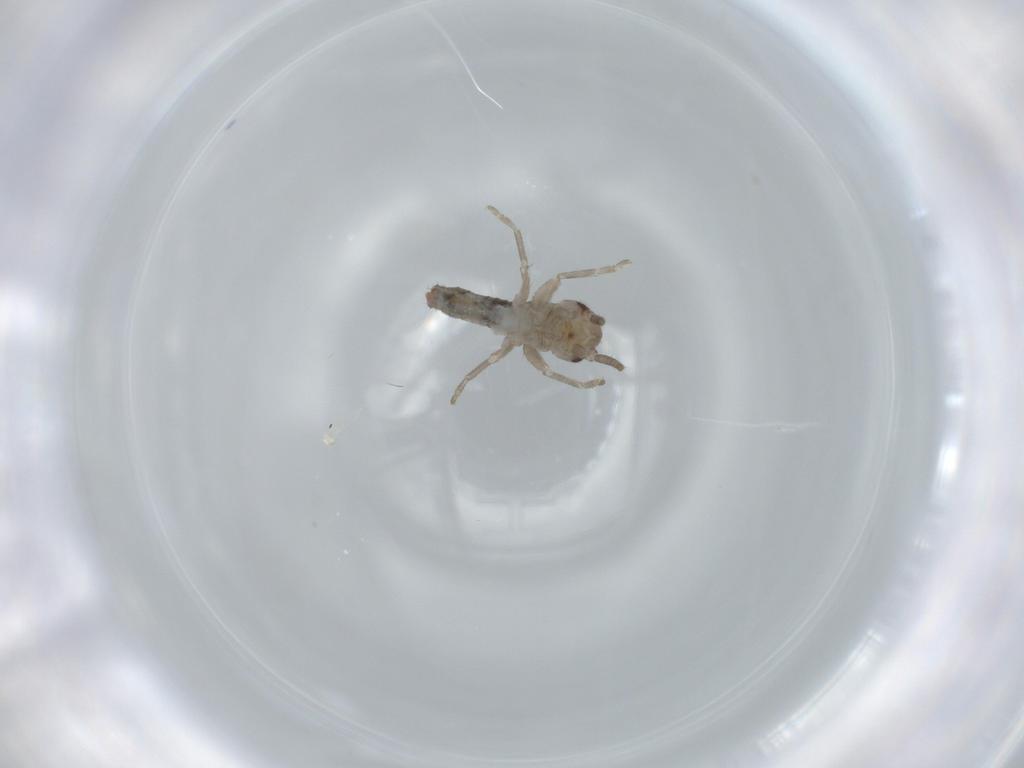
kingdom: Animalia
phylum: Arthropoda
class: Insecta
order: Orthoptera
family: Gryllidae
